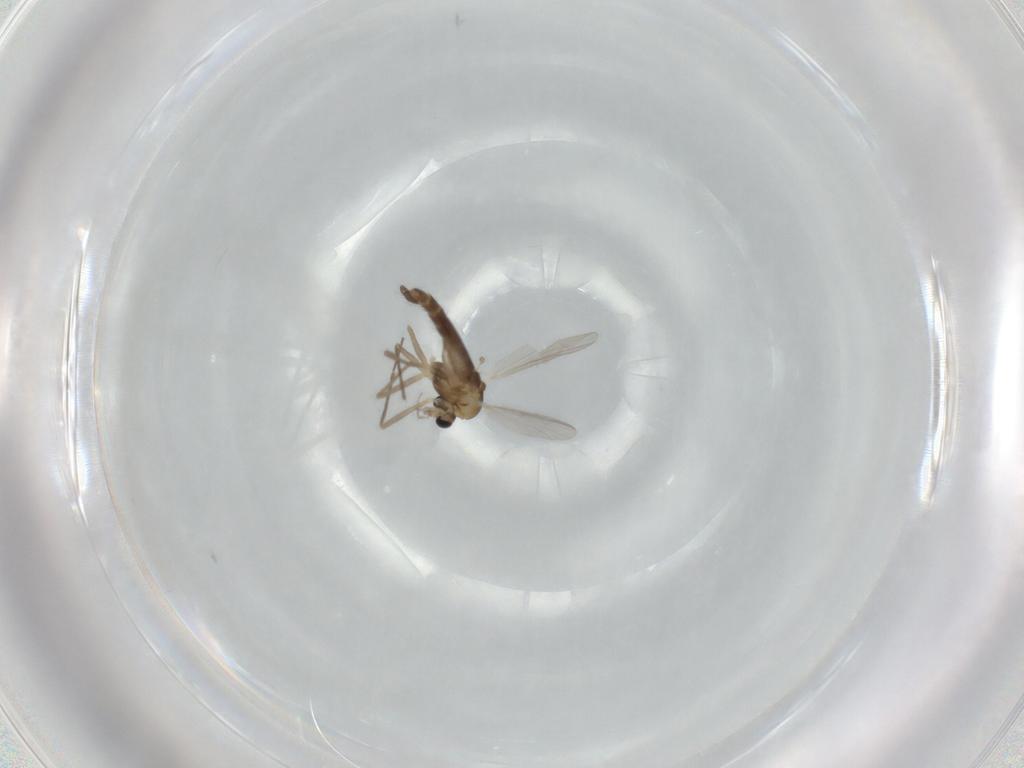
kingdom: Animalia
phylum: Arthropoda
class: Insecta
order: Diptera
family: Chironomidae
